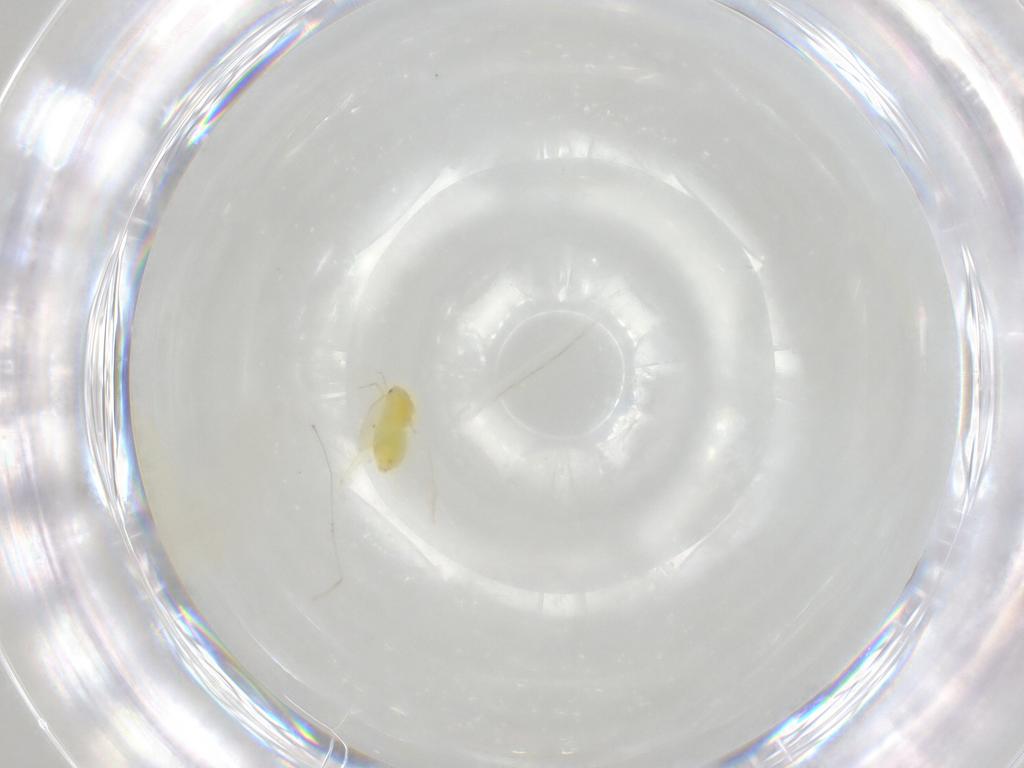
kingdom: Animalia
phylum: Arthropoda
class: Insecta
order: Hemiptera
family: Aleyrodidae
